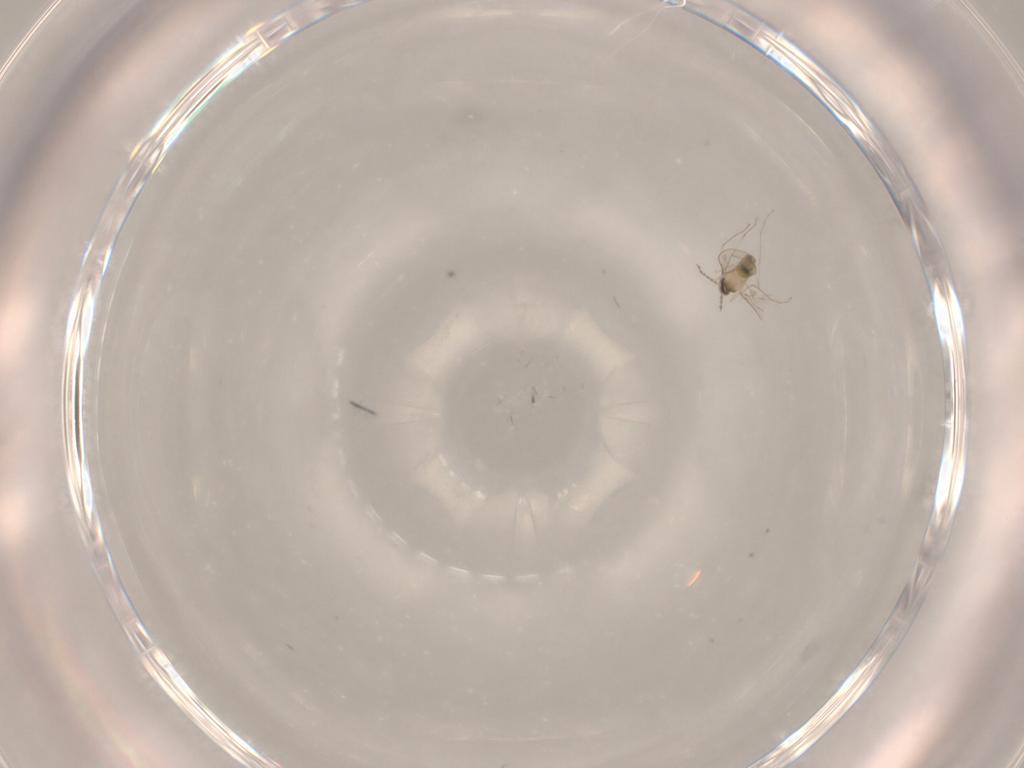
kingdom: Animalia
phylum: Arthropoda
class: Insecta
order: Diptera
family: Cecidomyiidae
